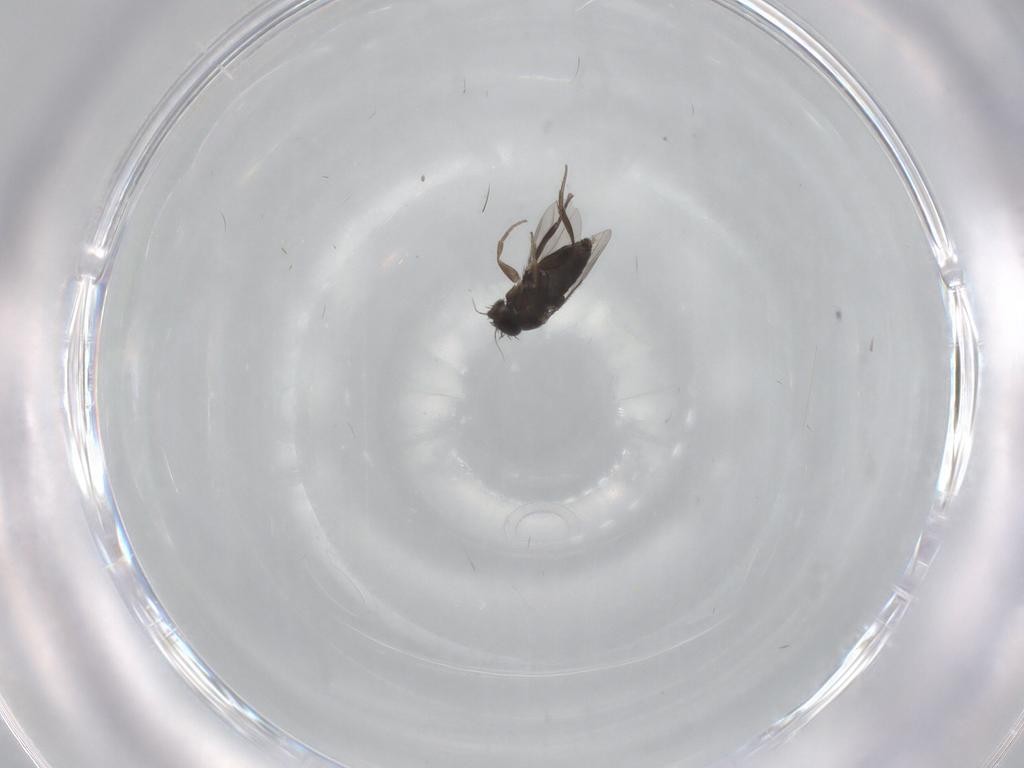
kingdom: Animalia
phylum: Arthropoda
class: Insecta
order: Diptera
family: Phoridae
